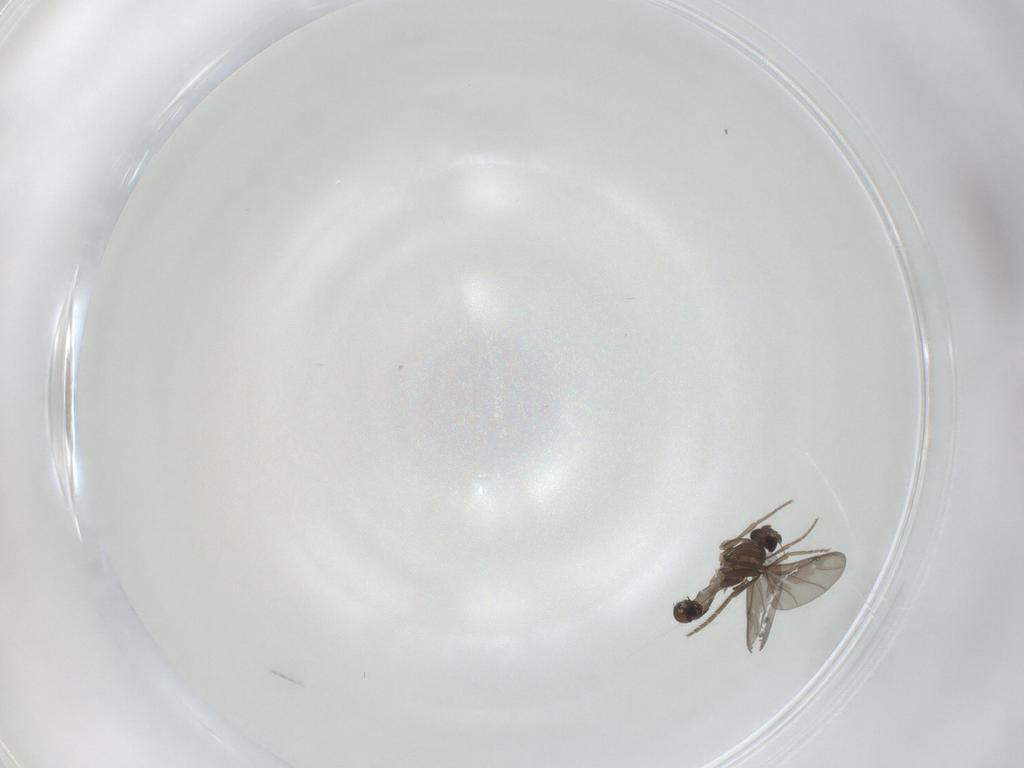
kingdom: Animalia
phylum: Arthropoda
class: Insecta
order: Diptera
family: Phoridae
